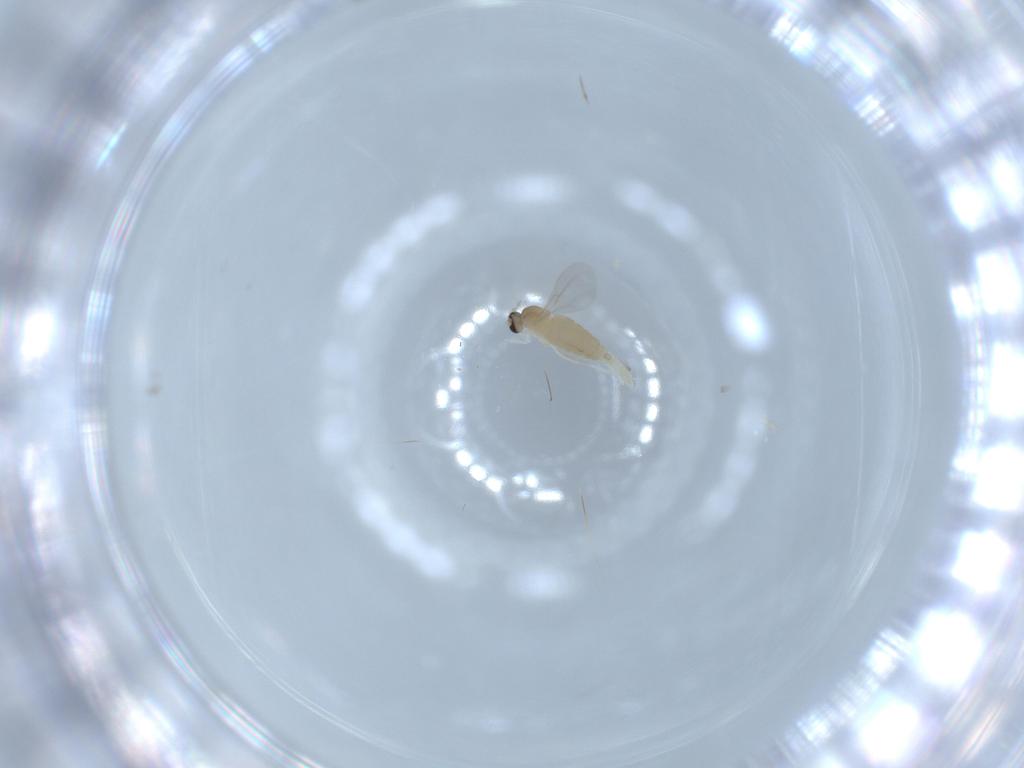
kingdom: Animalia
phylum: Arthropoda
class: Insecta
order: Diptera
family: Cecidomyiidae
